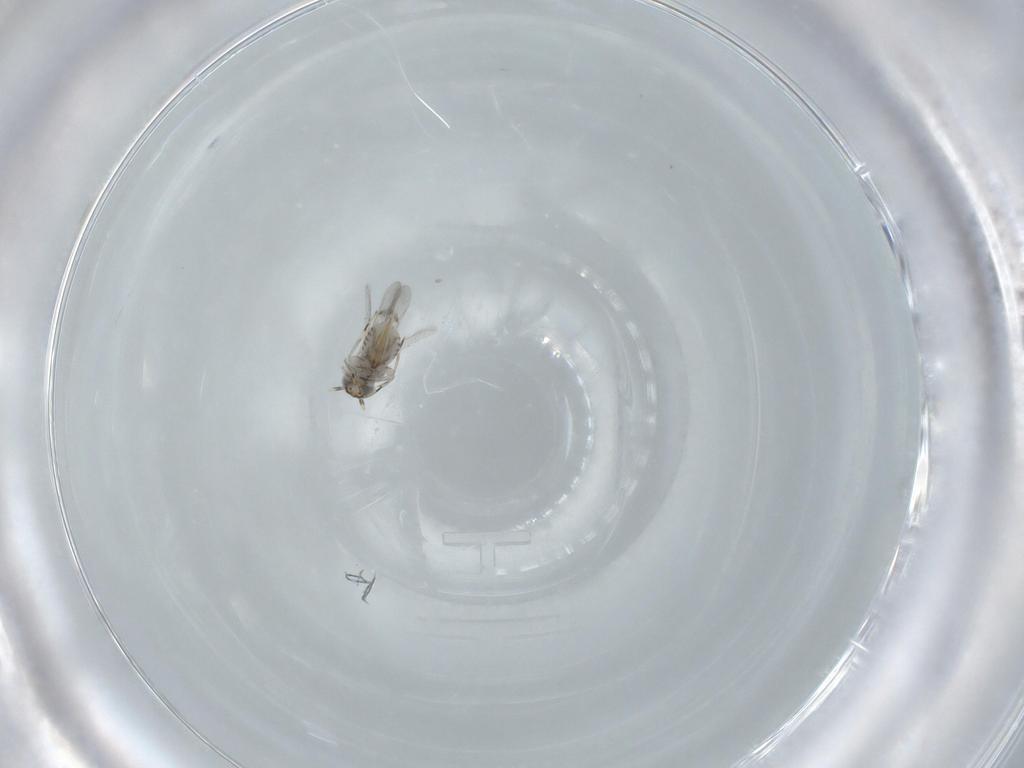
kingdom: Animalia
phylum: Arthropoda
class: Insecta
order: Hymenoptera
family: Aphelinidae
